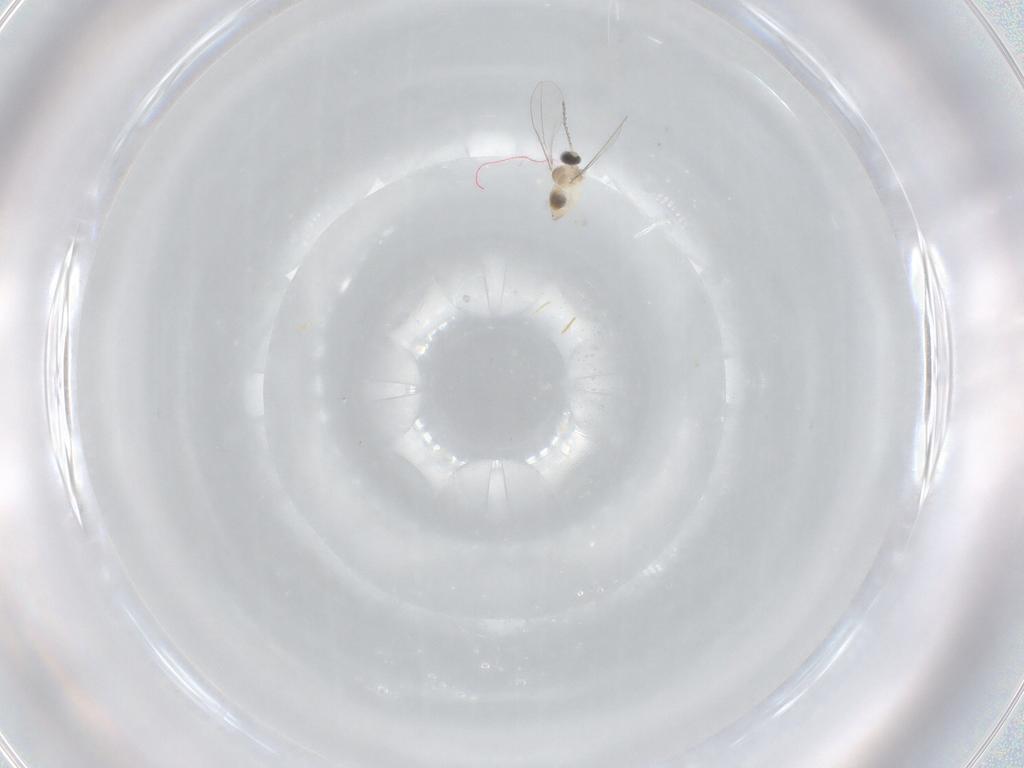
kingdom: Animalia
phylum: Arthropoda
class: Insecta
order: Diptera
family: Cecidomyiidae
